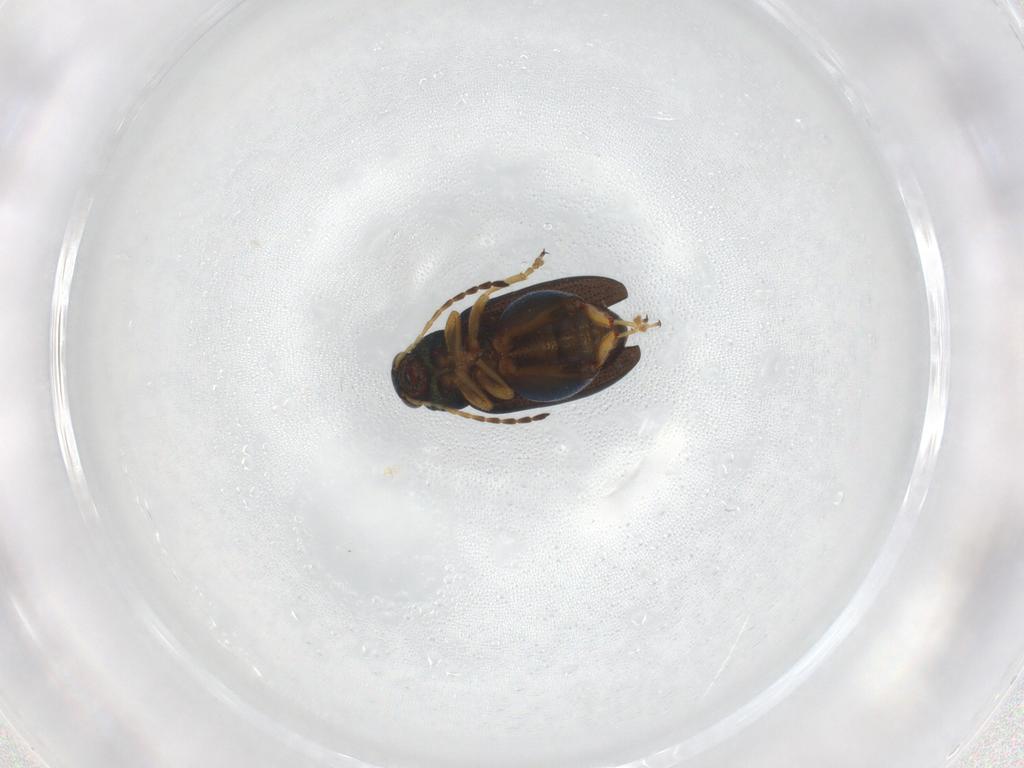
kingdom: Animalia
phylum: Arthropoda
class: Insecta
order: Coleoptera
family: Chrysomelidae
